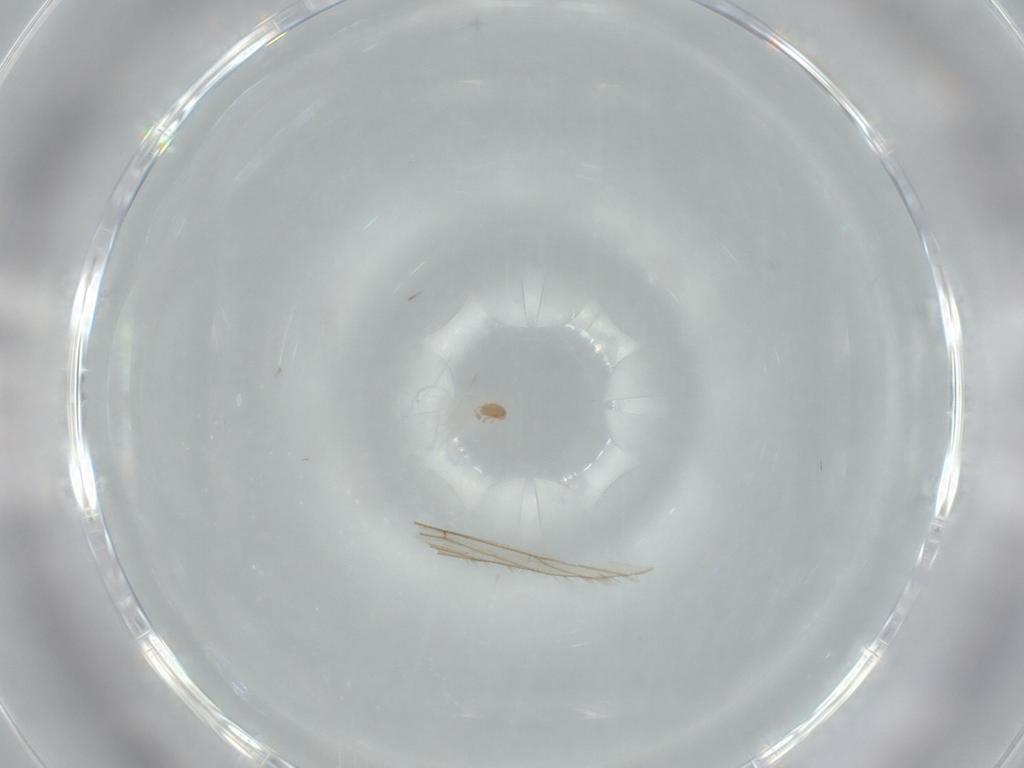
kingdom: Animalia
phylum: Arthropoda
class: Arachnida
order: Trombidiformes
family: Pygmephoridae
